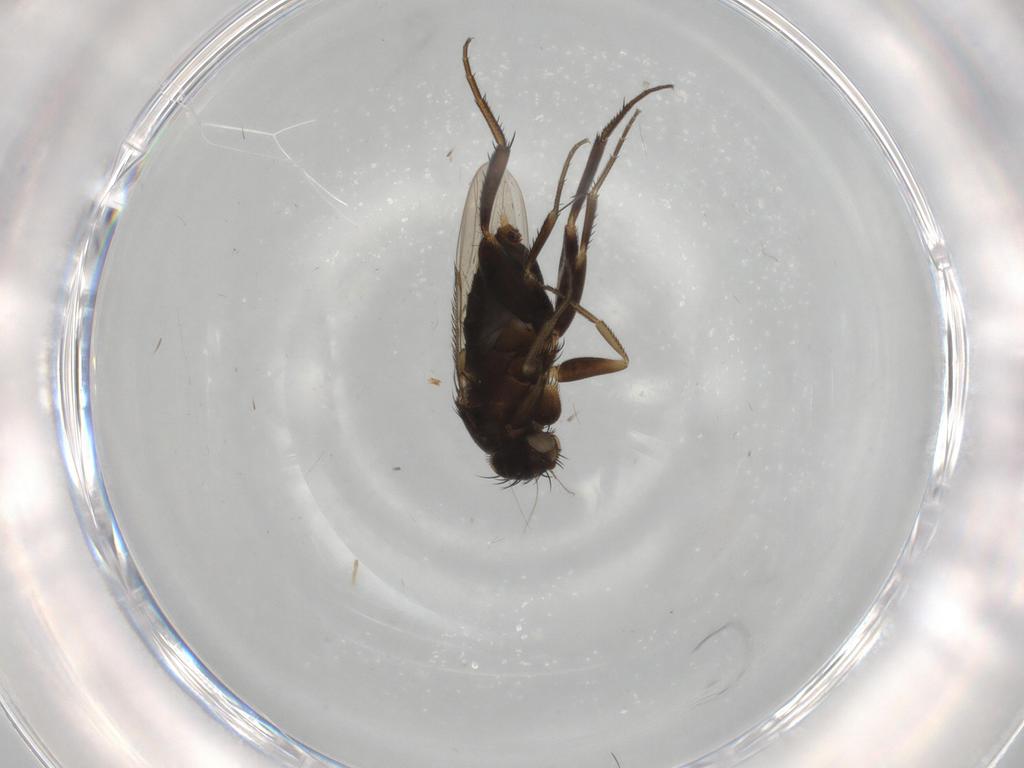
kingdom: Animalia
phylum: Arthropoda
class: Insecta
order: Diptera
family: Phoridae
